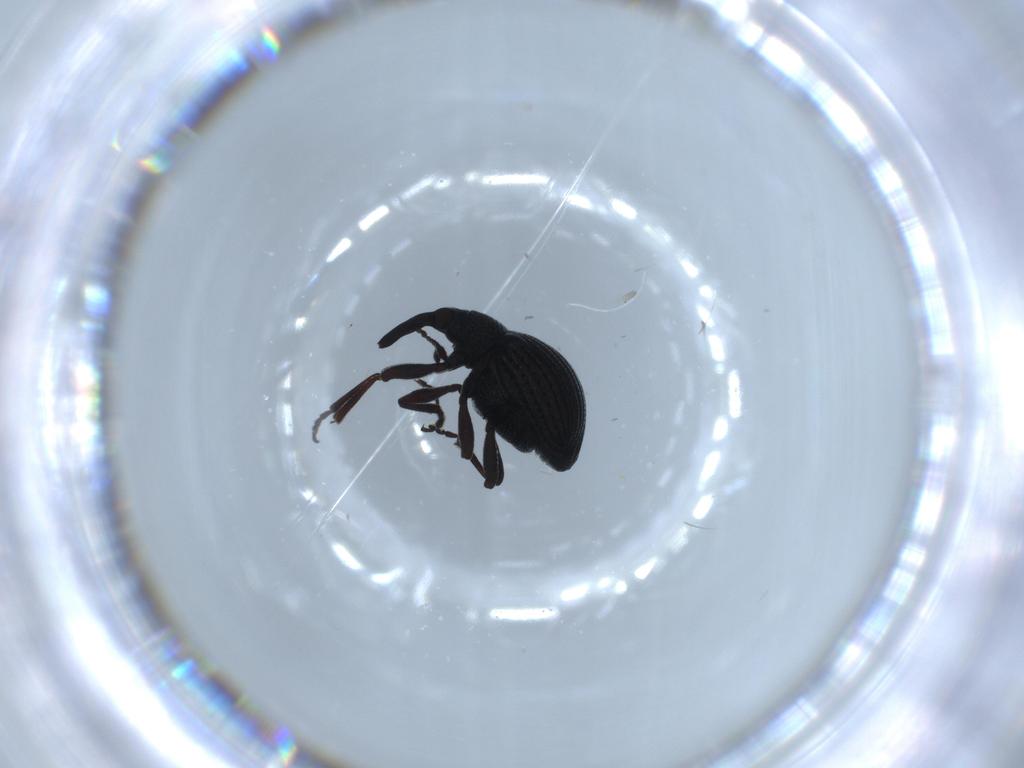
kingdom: Animalia
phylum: Arthropoda
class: Insecta
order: Coleoptera
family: Brentidae
